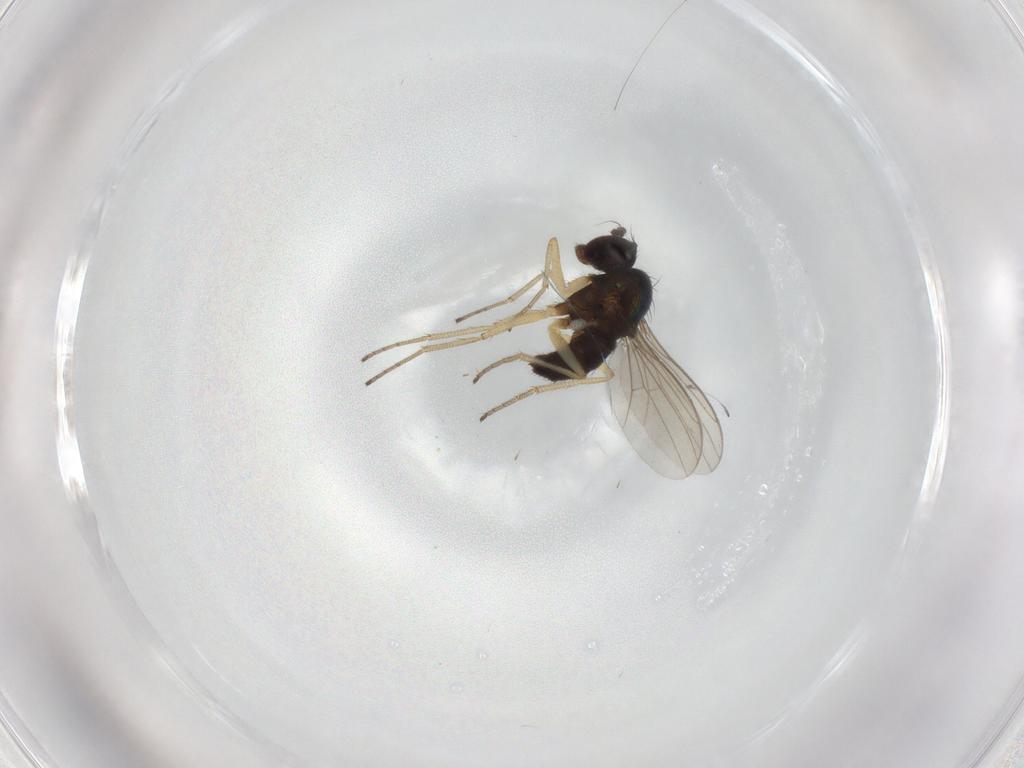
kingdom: Animalia
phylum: Arthropoda
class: Insecta
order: Diptera
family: Dolichopodidae
